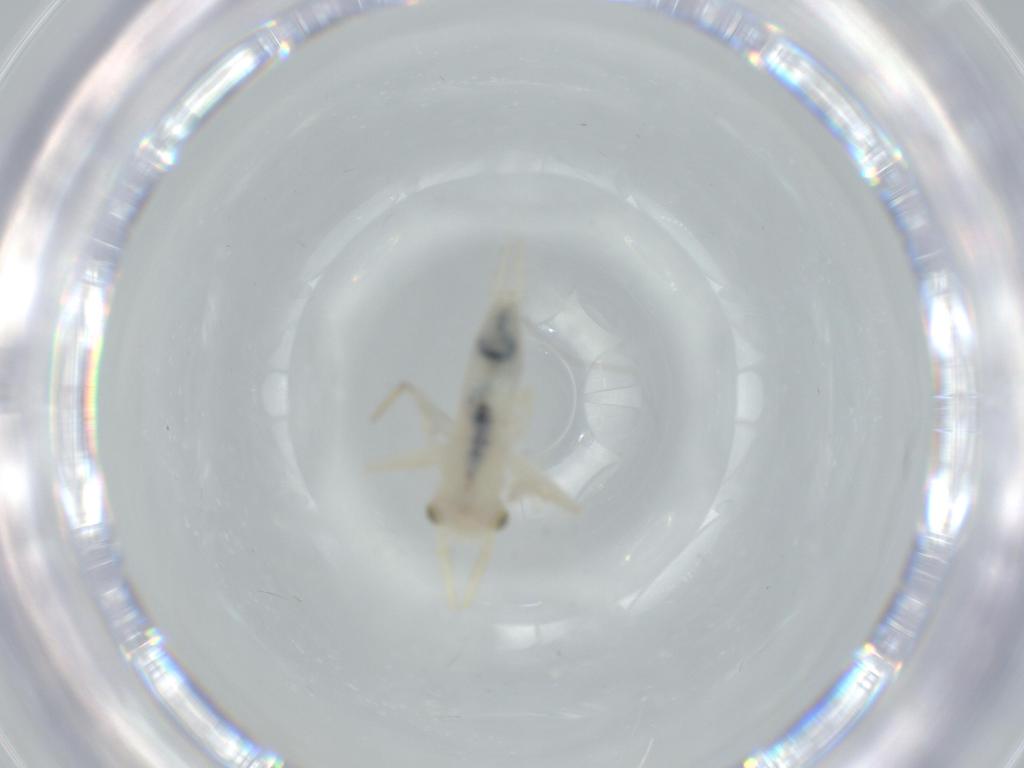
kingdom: Animalia
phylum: Arthropoda
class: Insecta
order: Orthoptera
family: Trigonidiidae
